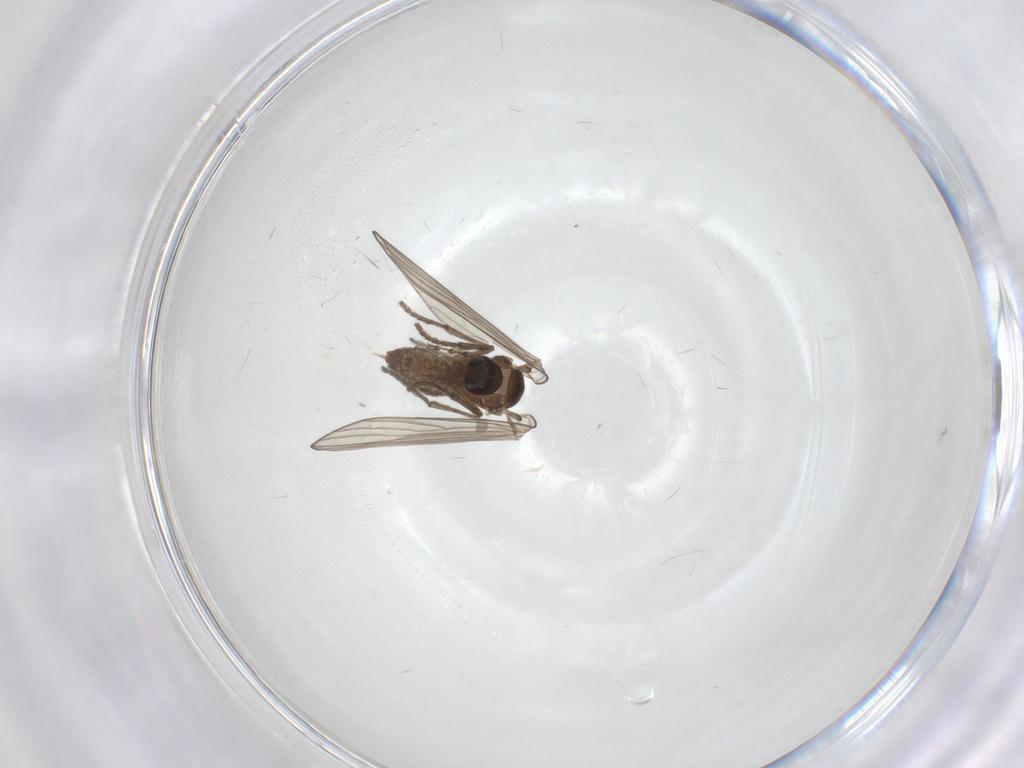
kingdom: Animalia
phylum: Arthropoda
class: Insecta
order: Diptera
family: Psychodidae
